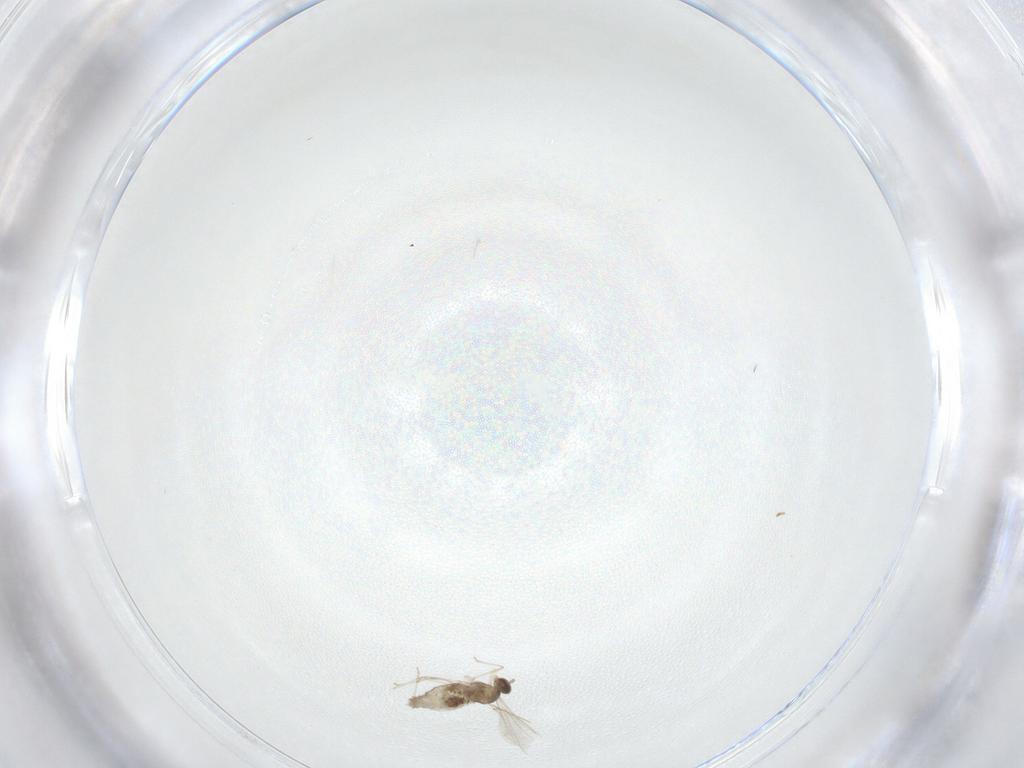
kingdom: Animalia
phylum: Arthropoda
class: Insecta
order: Diptera
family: Cecidomyiidae
